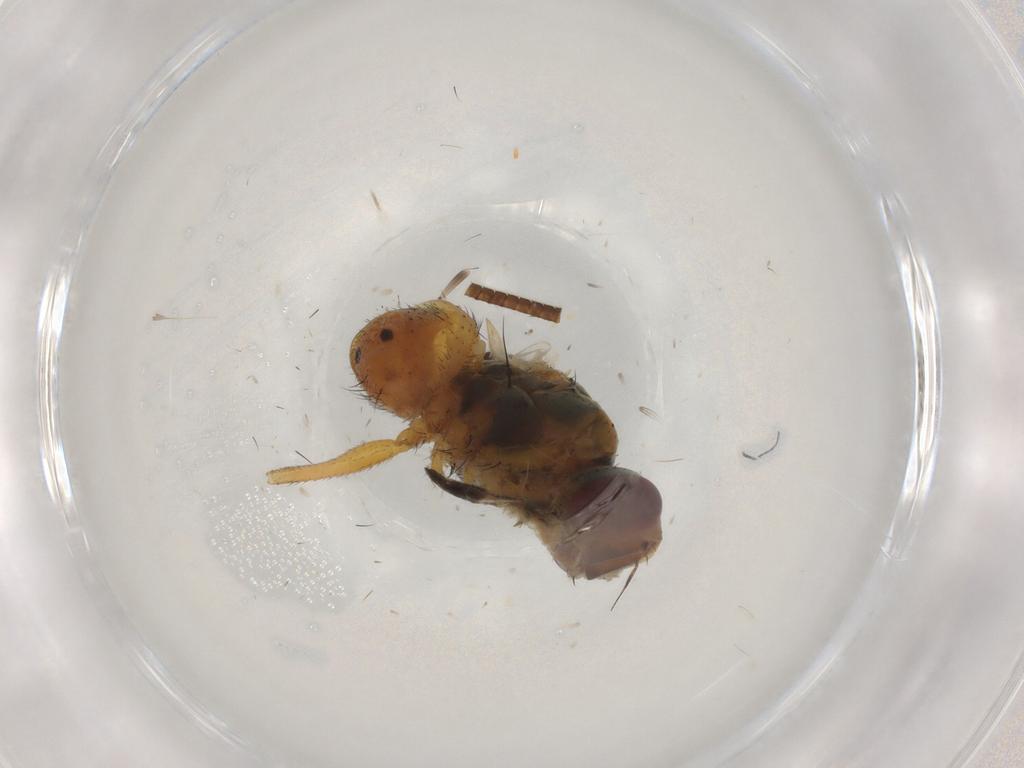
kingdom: Animalia
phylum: Arthropoda
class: Insecta
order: Diptera
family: Muscidae
